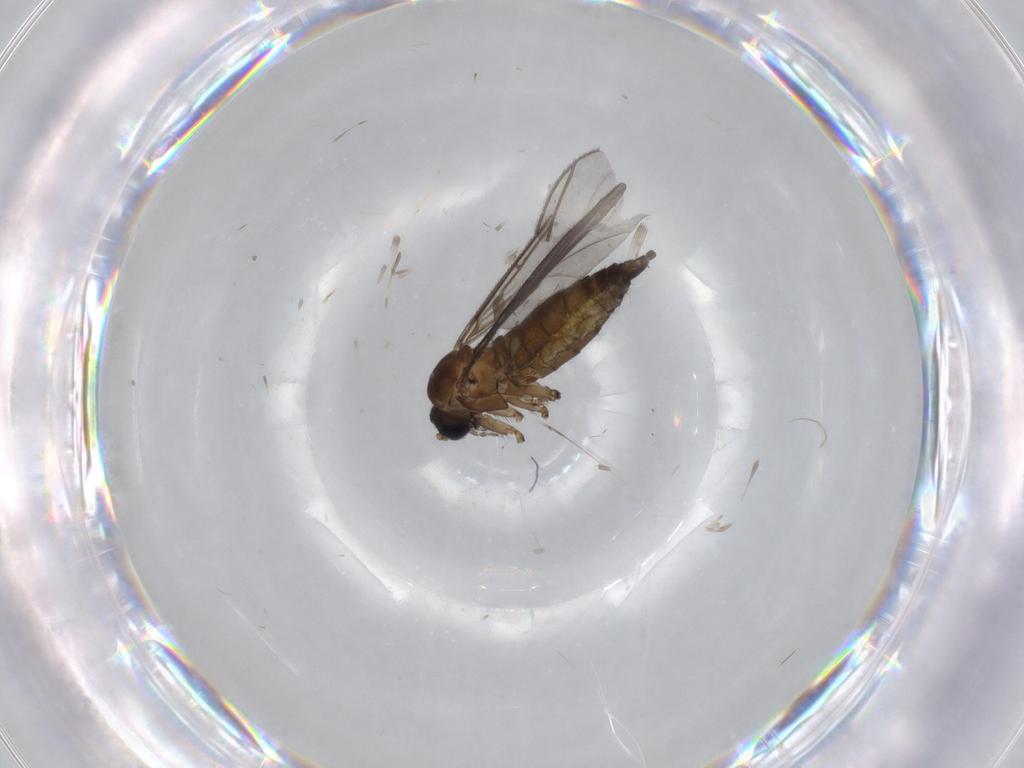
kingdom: Animalia
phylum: Arthropoda
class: Insecta
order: Diptera
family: Sciaridae
